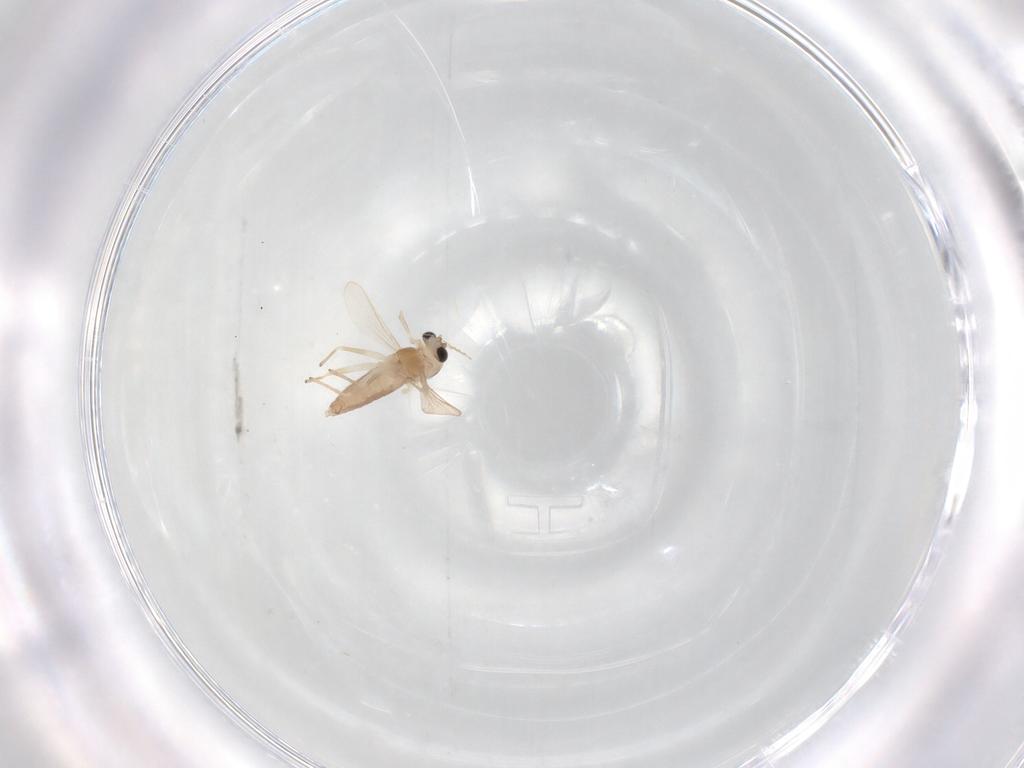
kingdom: Animalia
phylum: Arthropoda
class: Insecta
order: Diptera
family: Chironomidae
